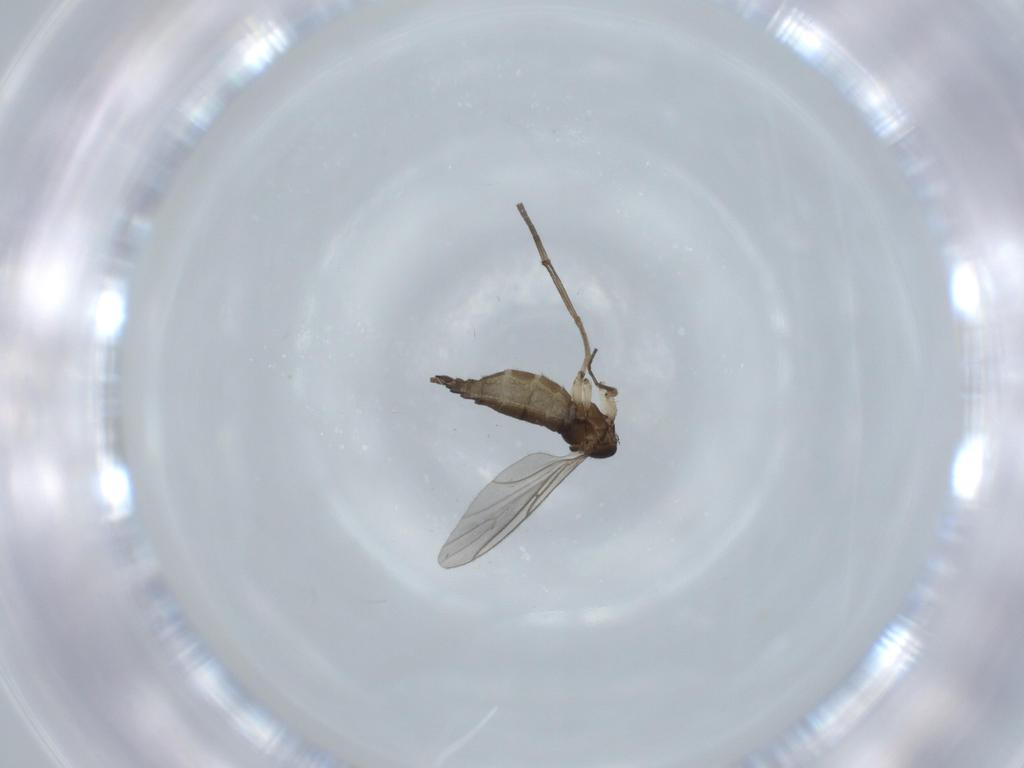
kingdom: Animalia
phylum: Arthropoda
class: Insecta
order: Diptera
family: Sciaridae
